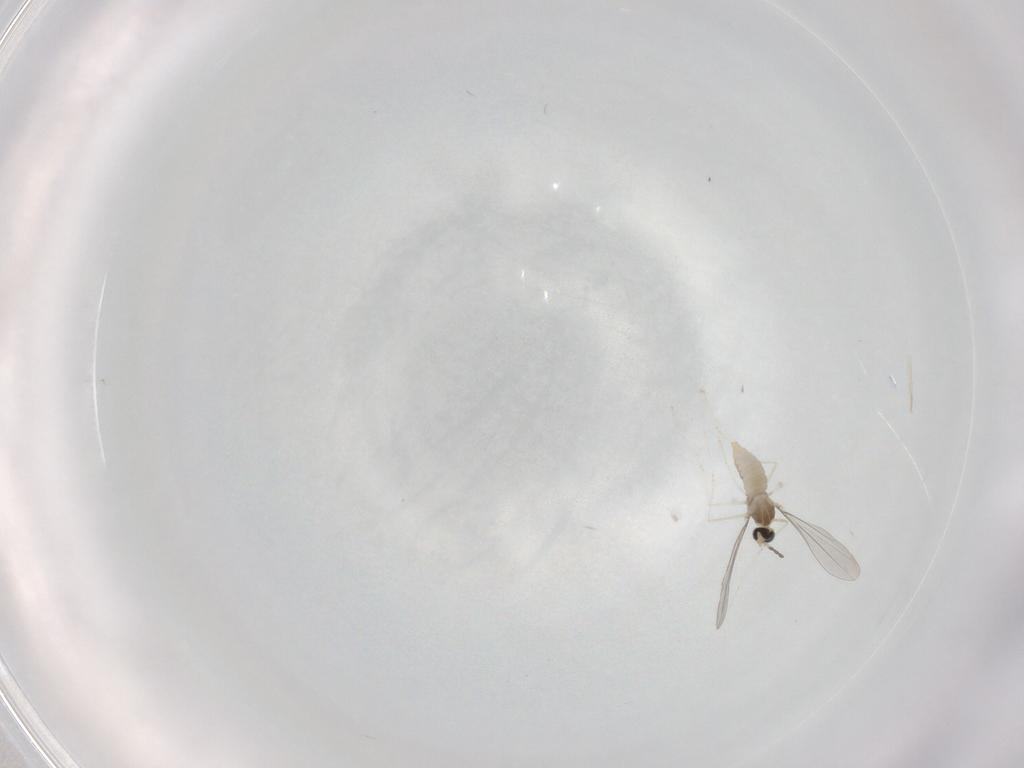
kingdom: Animalia
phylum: Arthropoda
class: Insecta
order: Diptera
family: Cecidomyiidae
